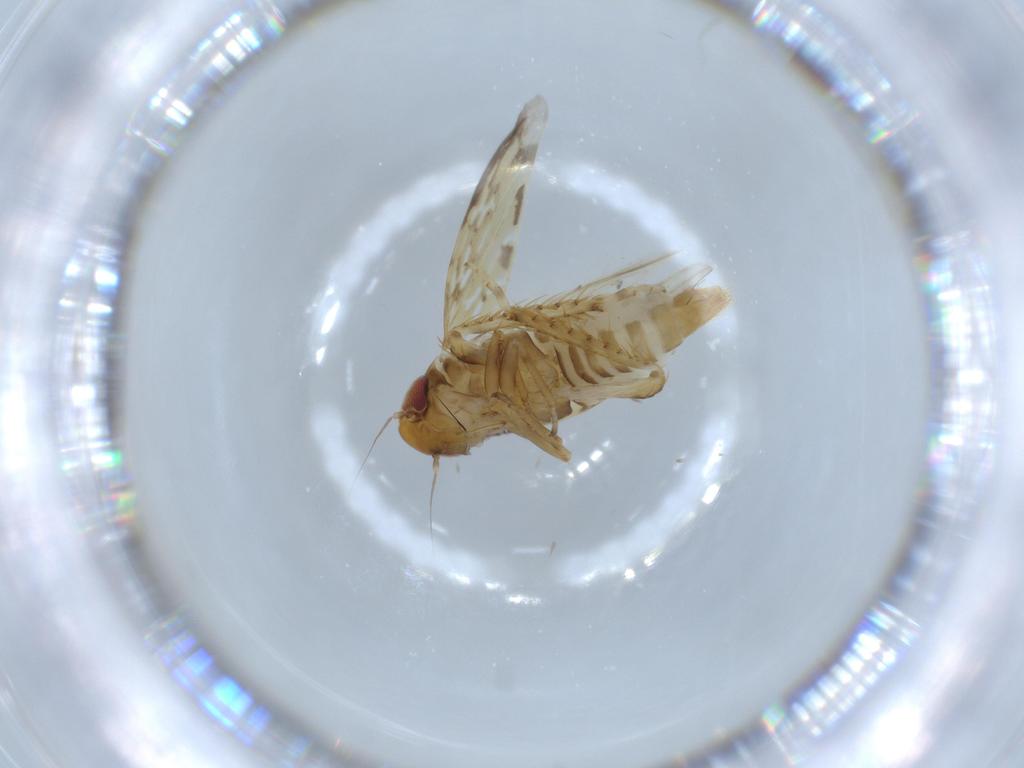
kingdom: Animalia
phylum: Arthropoda
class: Insecta
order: Hemiptera
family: Cicadellidae
